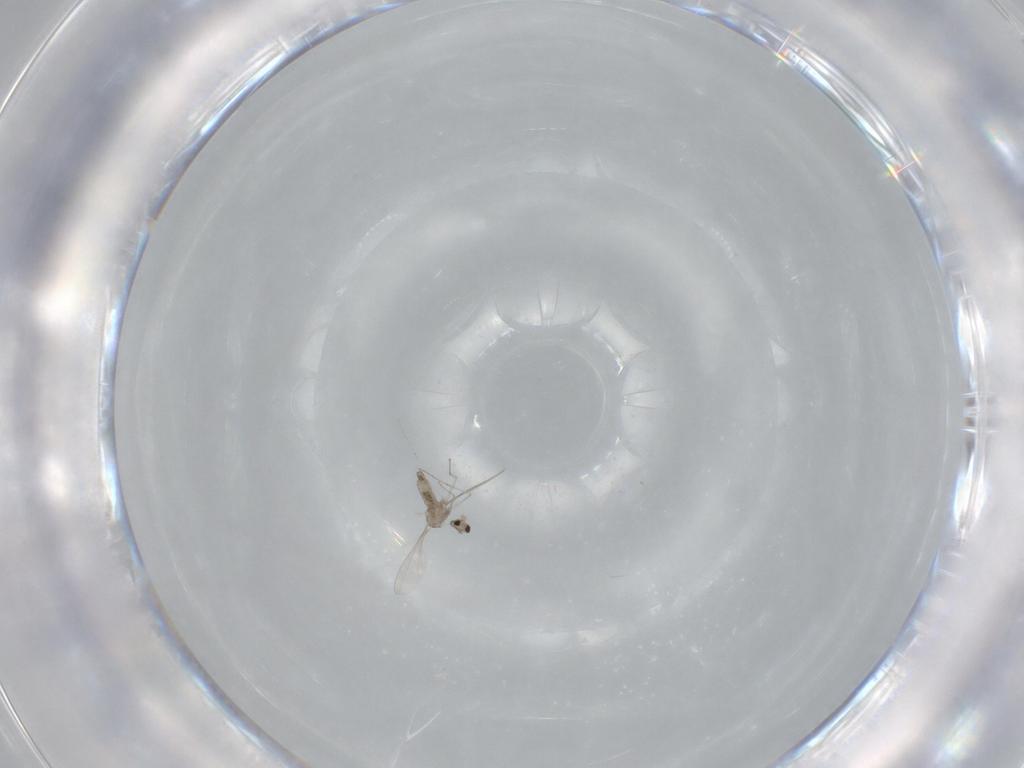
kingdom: Animalia
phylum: Arthropoda
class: Insecta
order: Diptera
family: Cecidomyiidae
